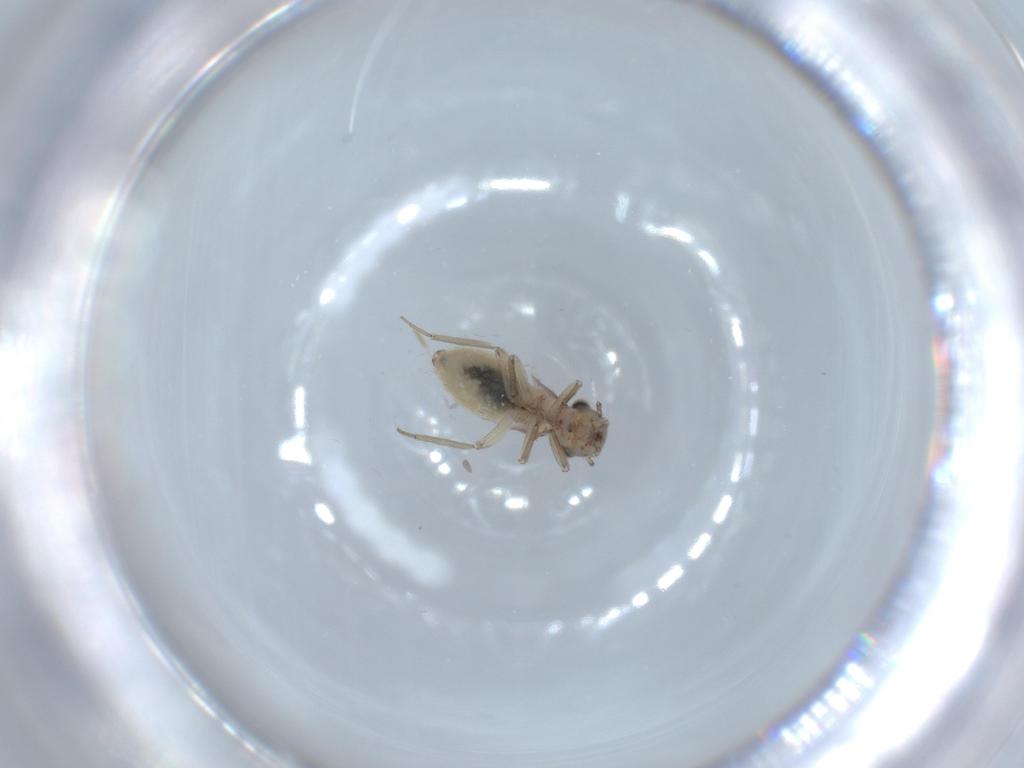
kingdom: Animalia
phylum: Arthropoda
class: Insecta
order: Psocodea
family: Lepidopsocidae
